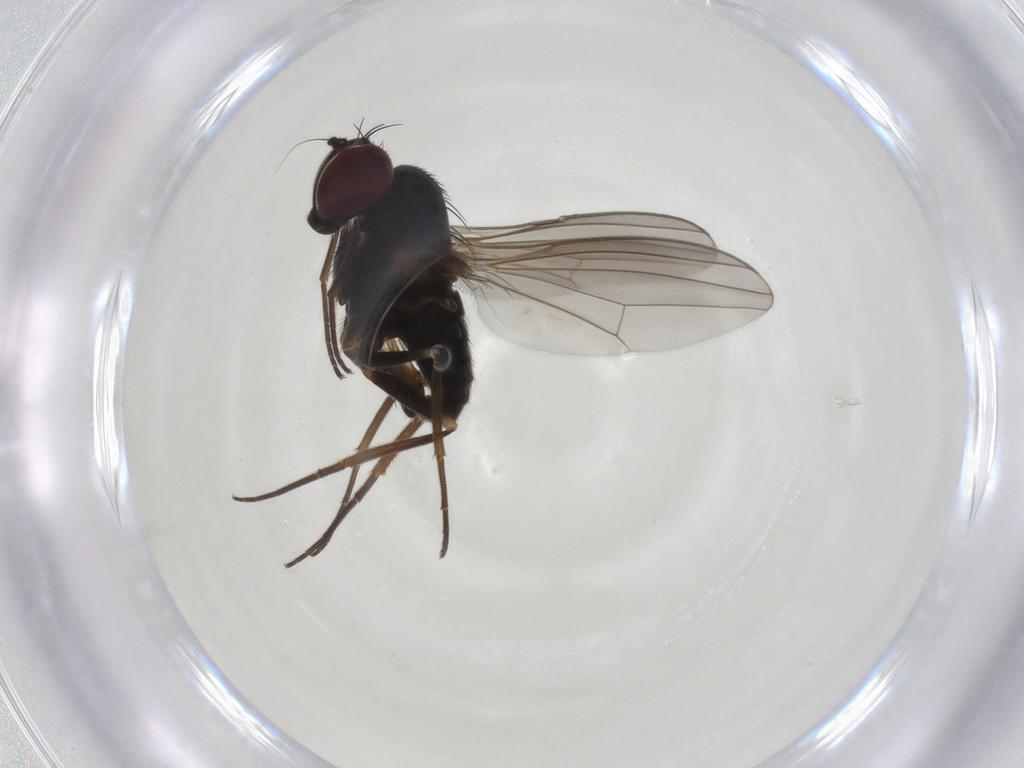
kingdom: Animalia
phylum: Arthropoda
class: Insecta
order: Diptera
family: Dolichopodidae
